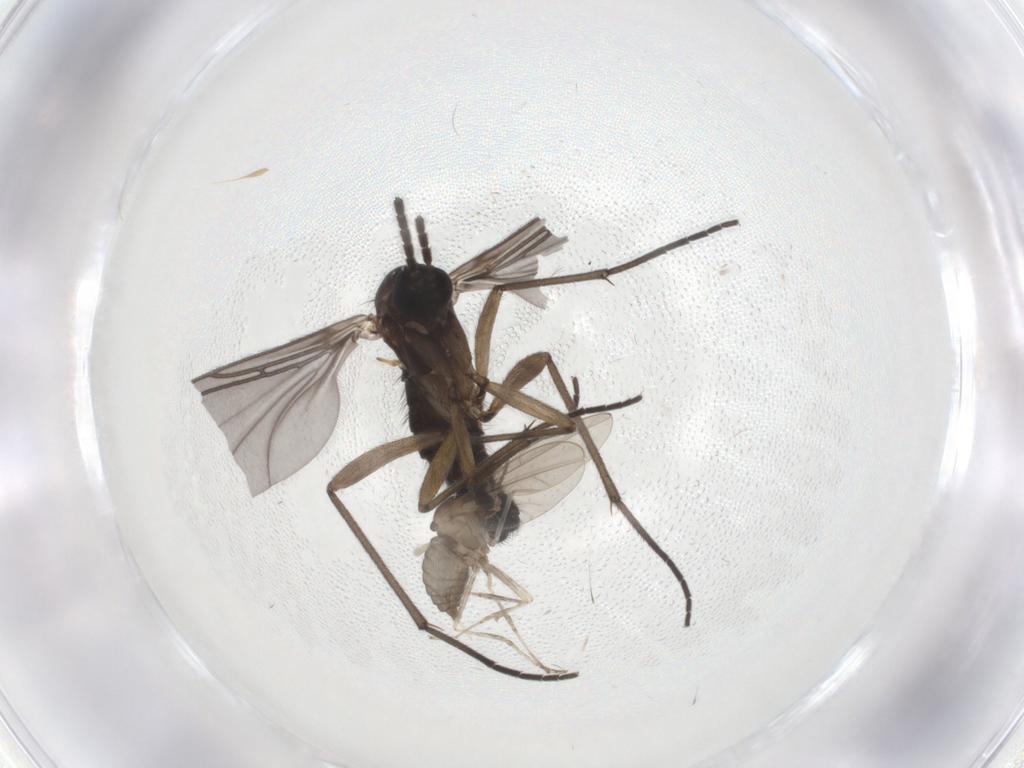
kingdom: Animalia
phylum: Arthropoda
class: Insecta
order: Diptera
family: Sciaridae
